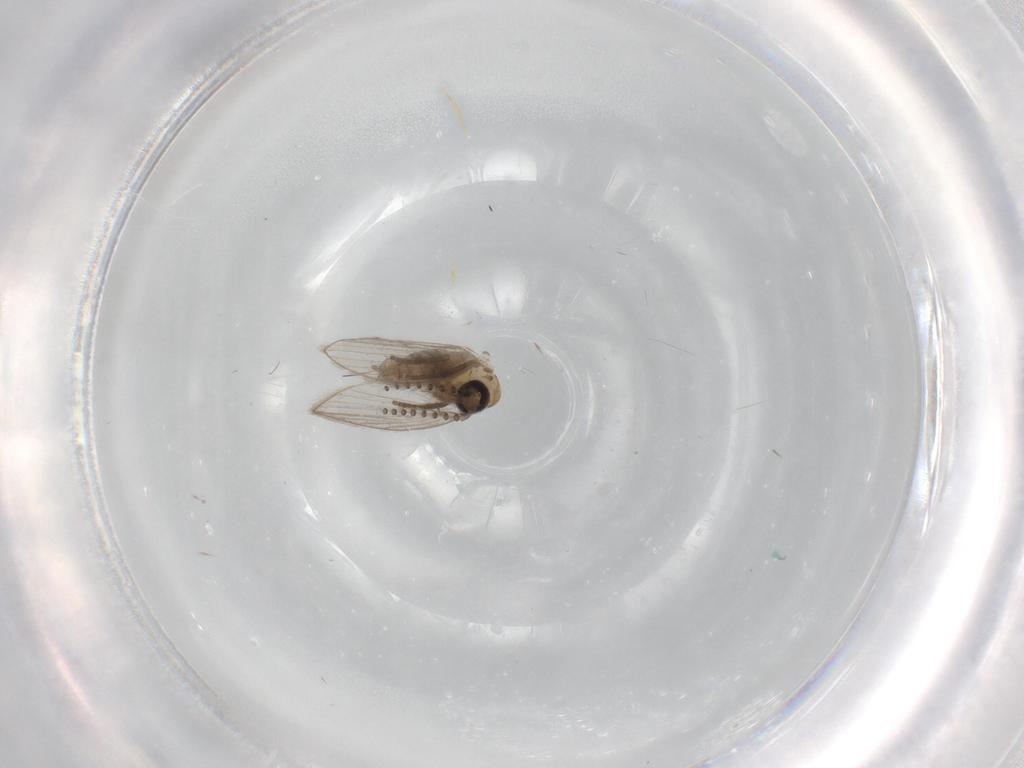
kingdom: Animalia
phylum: Arthropoda
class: Insecta
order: Diptera
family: Psychodidae
